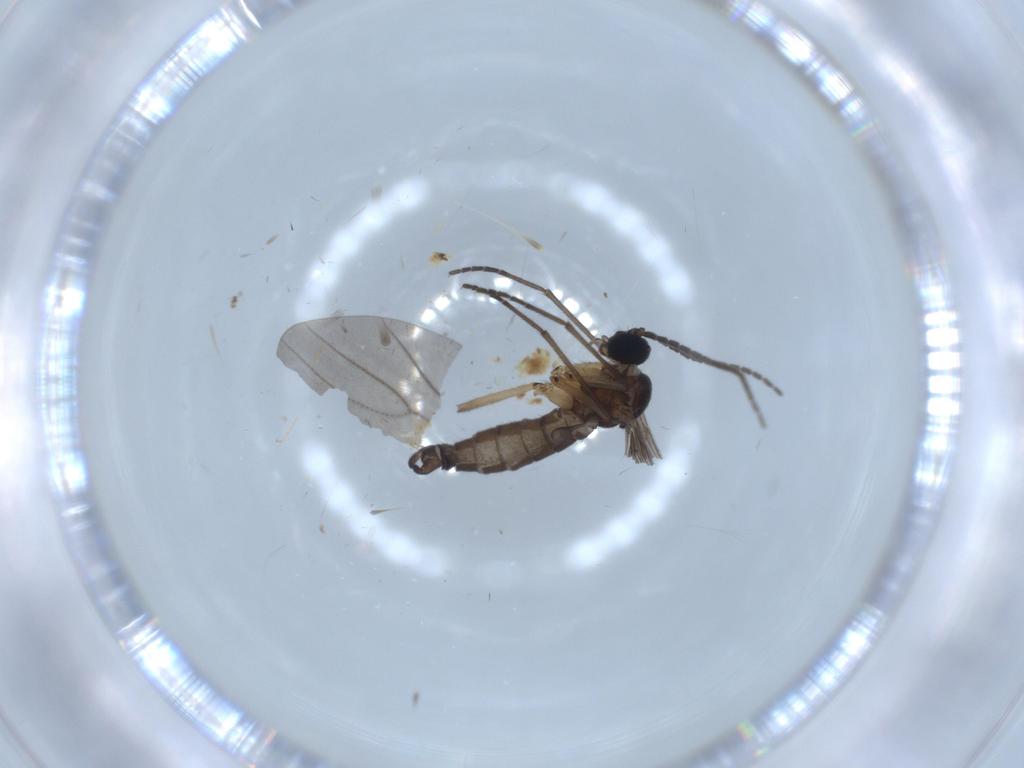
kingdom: Animalia
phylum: Arthropoda
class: Insecta
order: Diptera
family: Sciaridae
